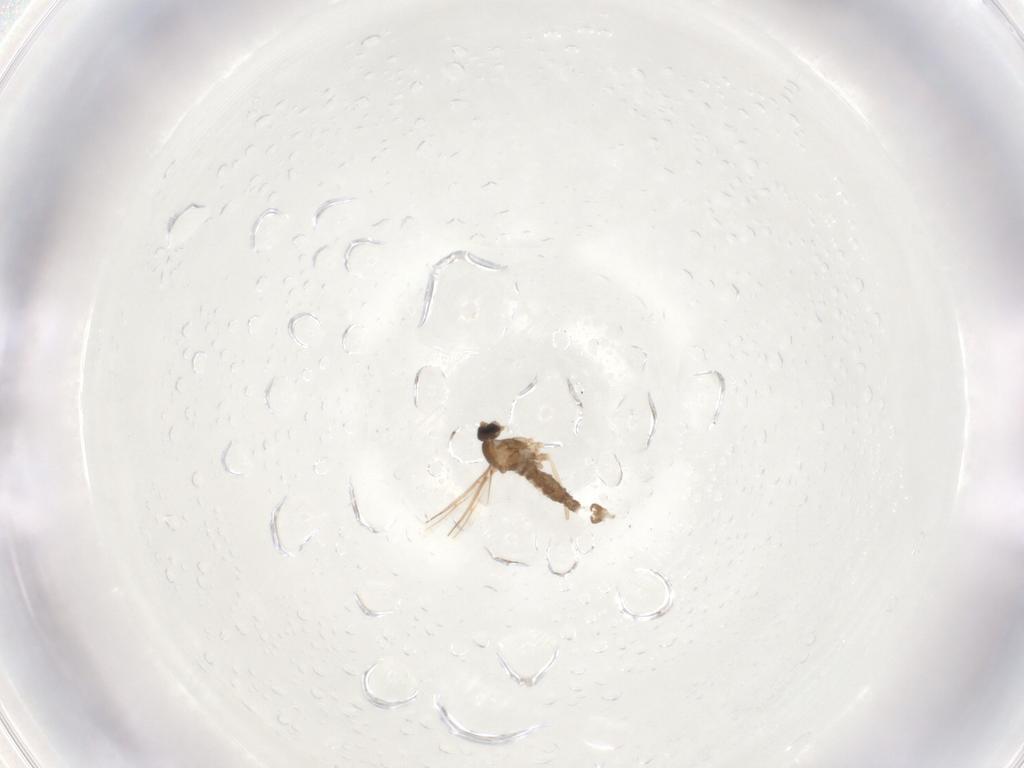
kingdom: Animalia
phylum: Arthropoda
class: Insecta
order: Diptera
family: Cecidomyiidae
